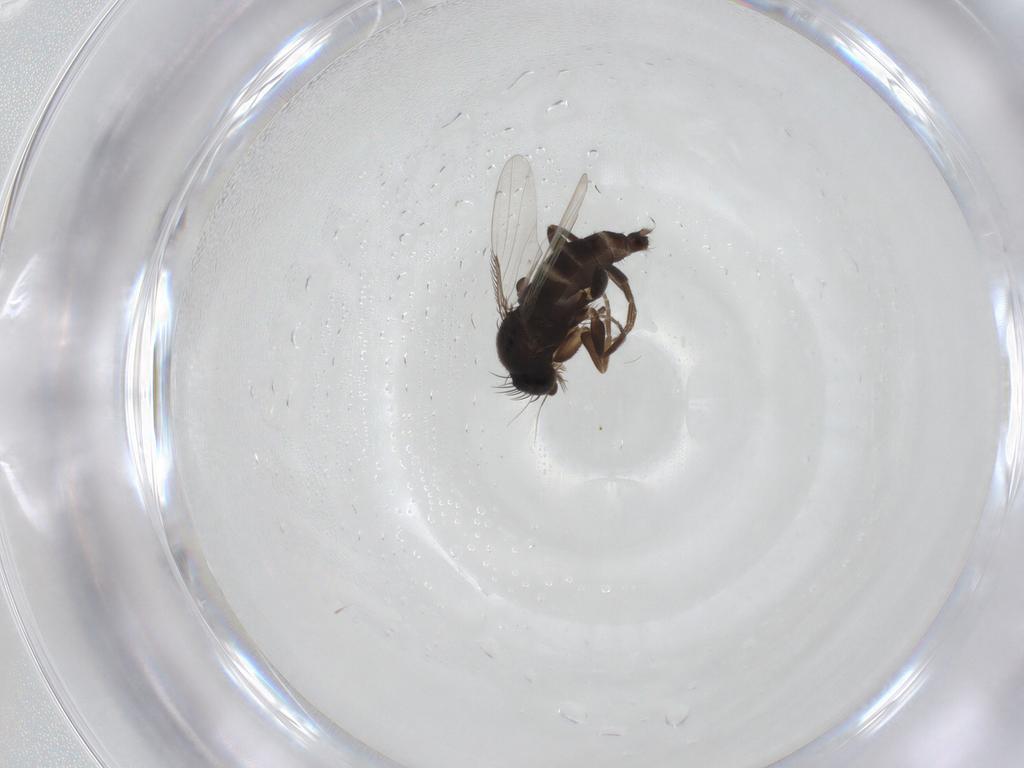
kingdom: Animalia
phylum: Arthropoda
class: Insecta
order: Diptera
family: Phoridae
